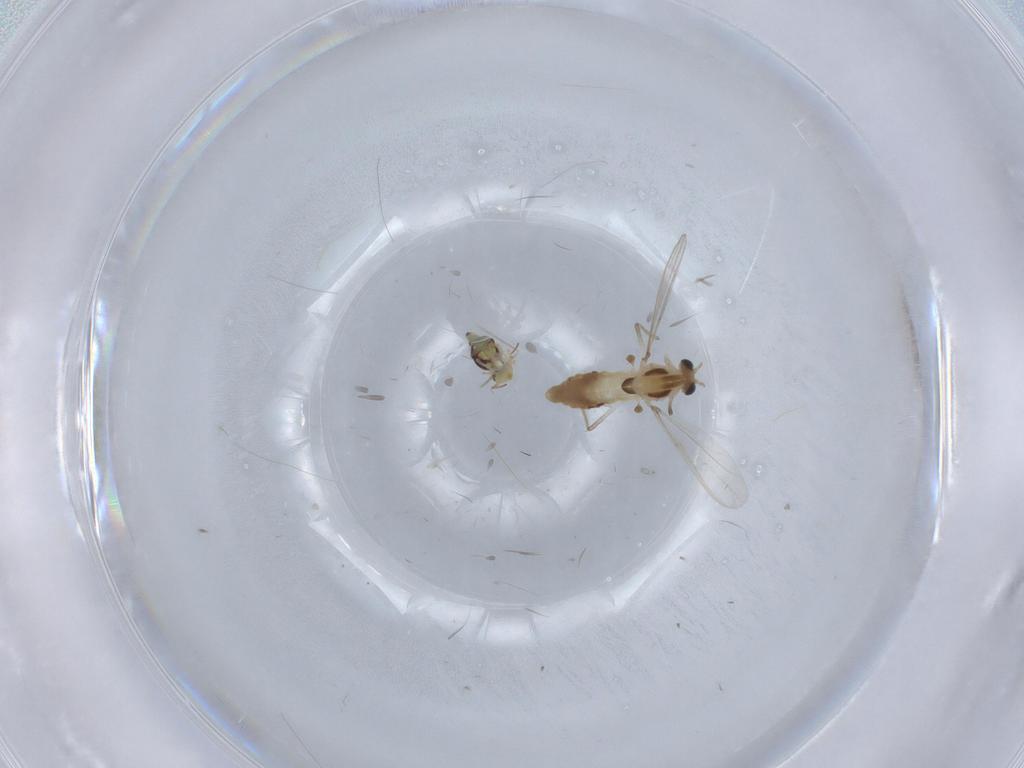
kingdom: Animalia
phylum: Arthropoda
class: Insecta
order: Diptera
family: Chironomidae
